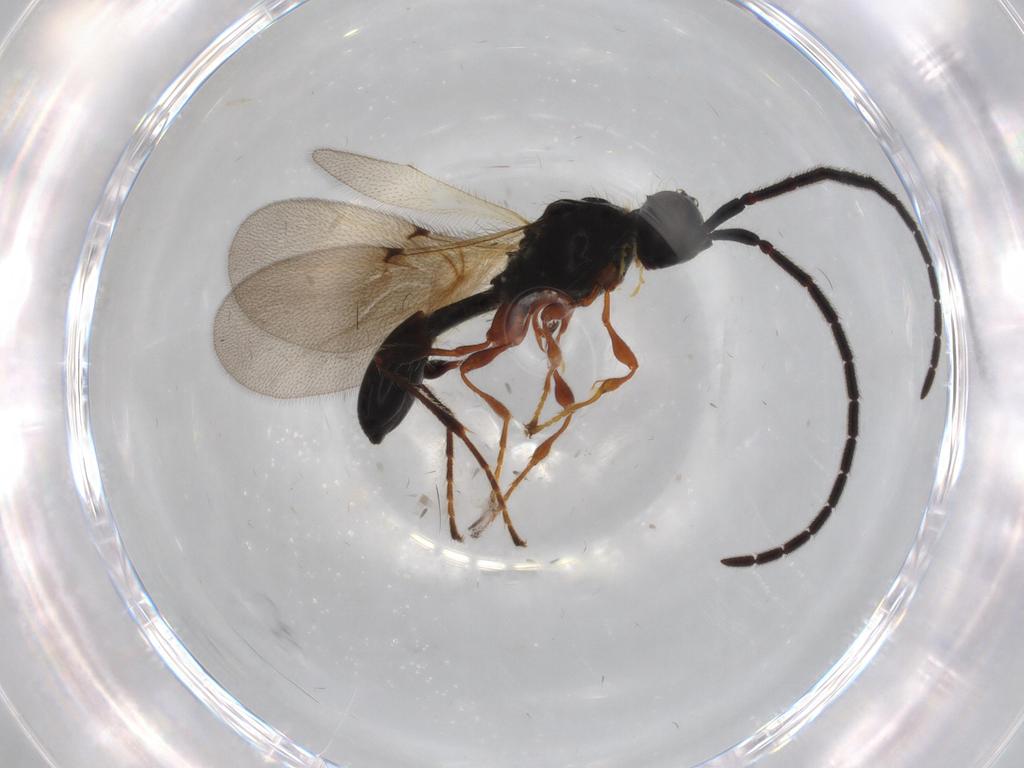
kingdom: Animalia
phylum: Arthropoda
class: Insecta
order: Hymenoptera
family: Diapriidae
